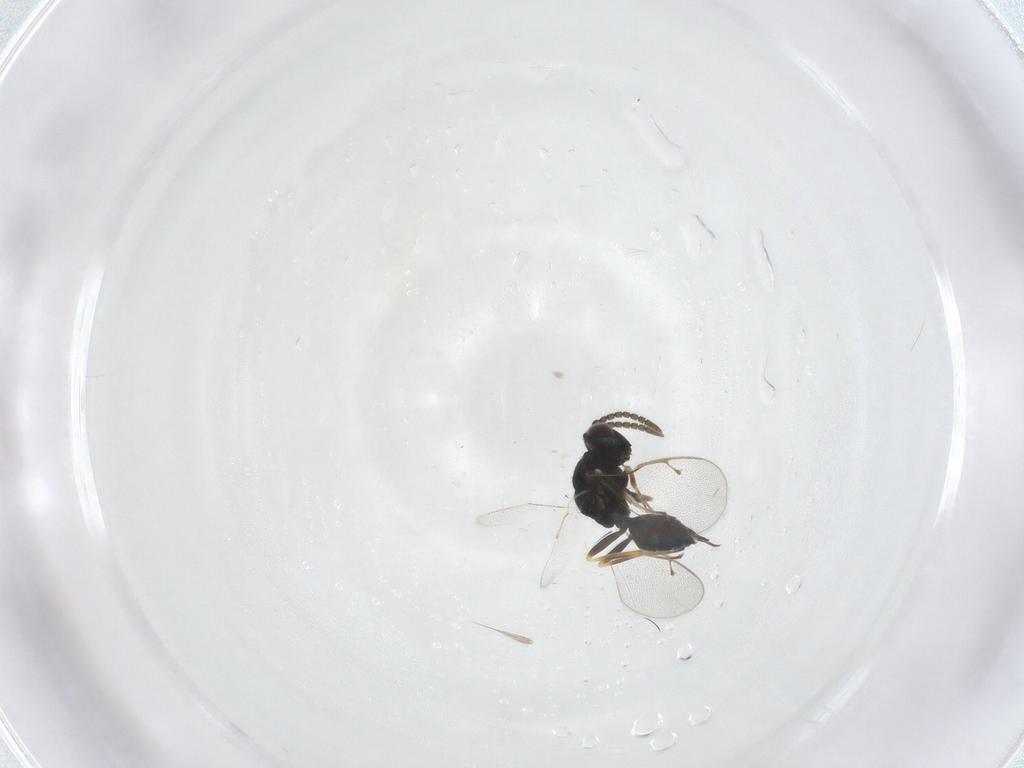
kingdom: Animalia
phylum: Arthropoda
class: Insecta
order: Hymenoptera
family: Pteromalidae
